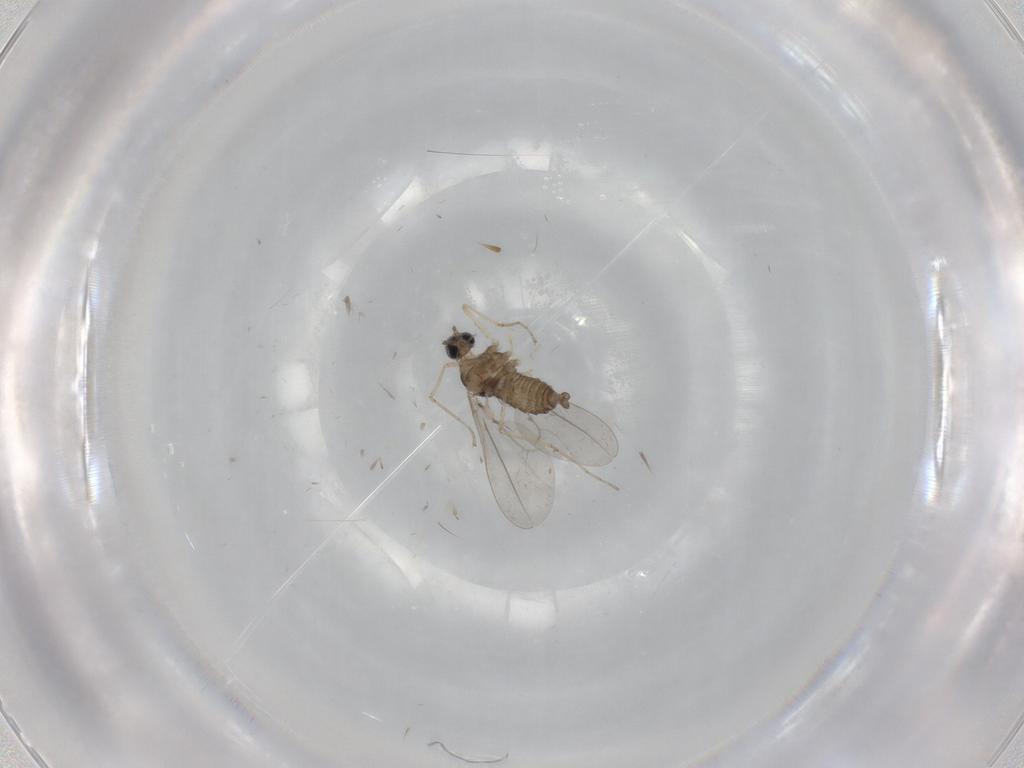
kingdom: Animalia
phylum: Arthropoda
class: Insecta
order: Diptera
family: Cecidomyiidae
